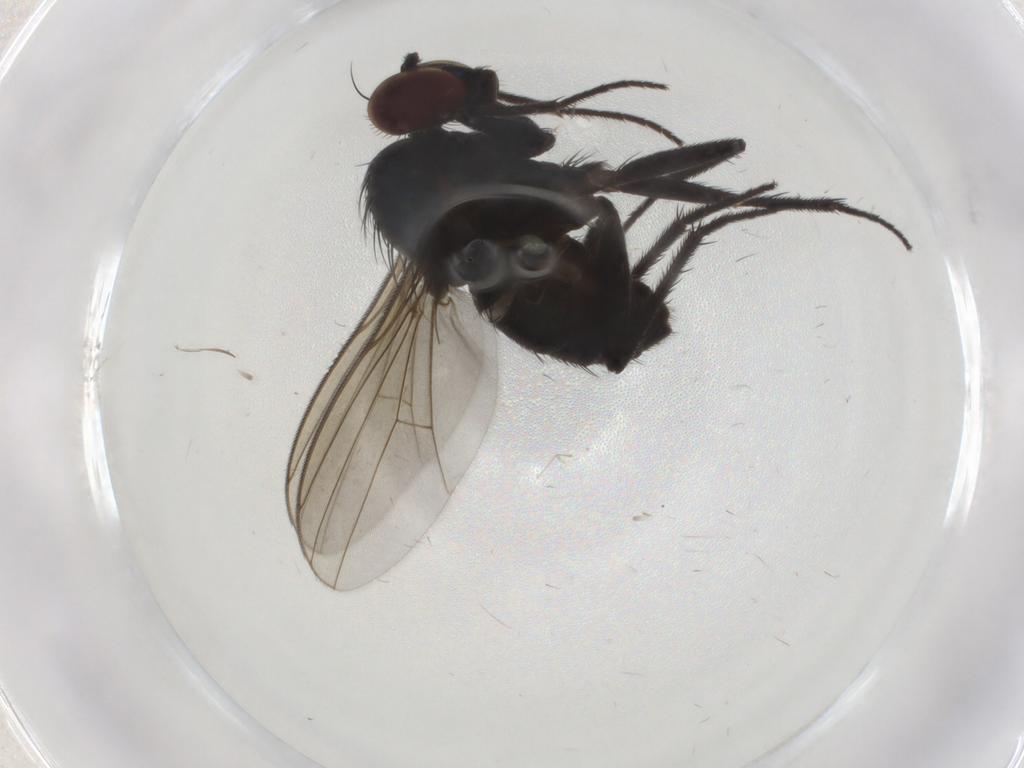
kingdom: Animalia
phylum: Arthropoda
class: Insecta
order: Diptera
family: Dolichopodidae
